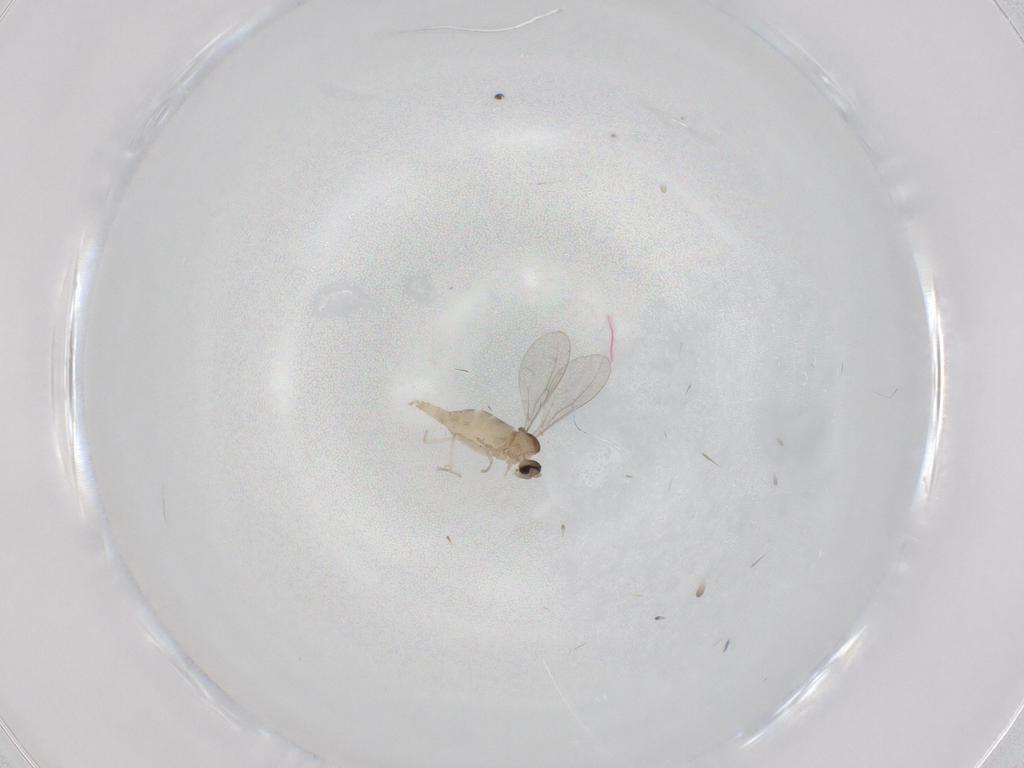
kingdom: Animalia
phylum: Arthropoda
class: Insecta
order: Diptera
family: Cecidomyiidae
